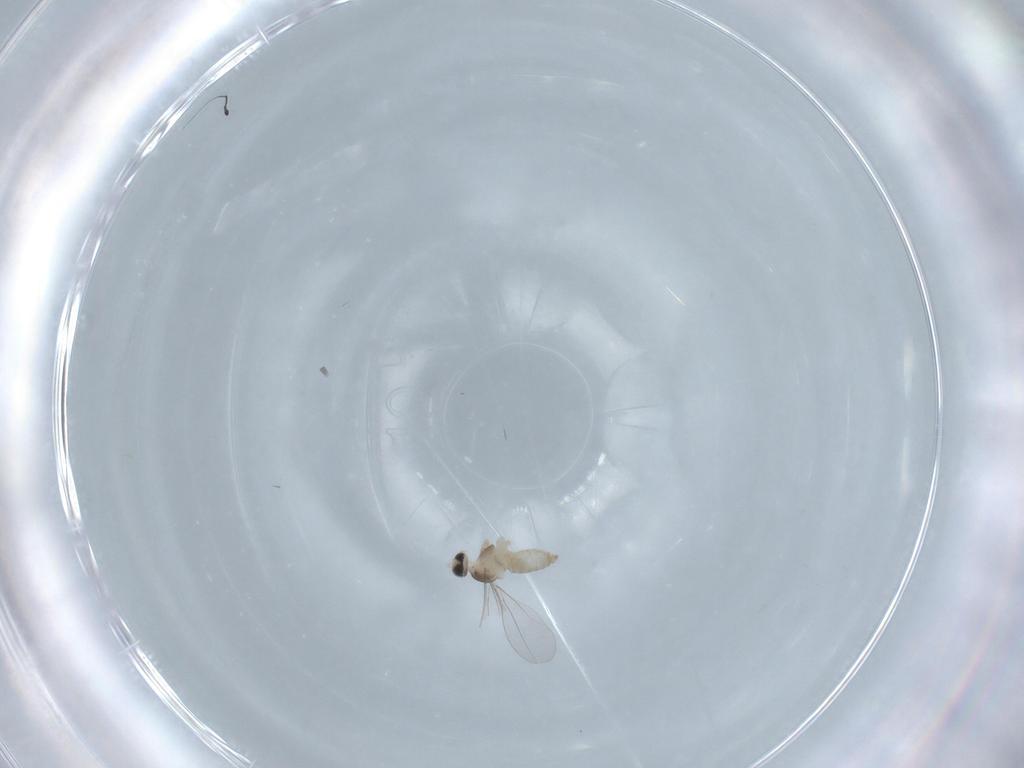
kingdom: Animalia
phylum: Arthropoda
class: Insecta
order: Diptera
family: Cecidomyiidae
